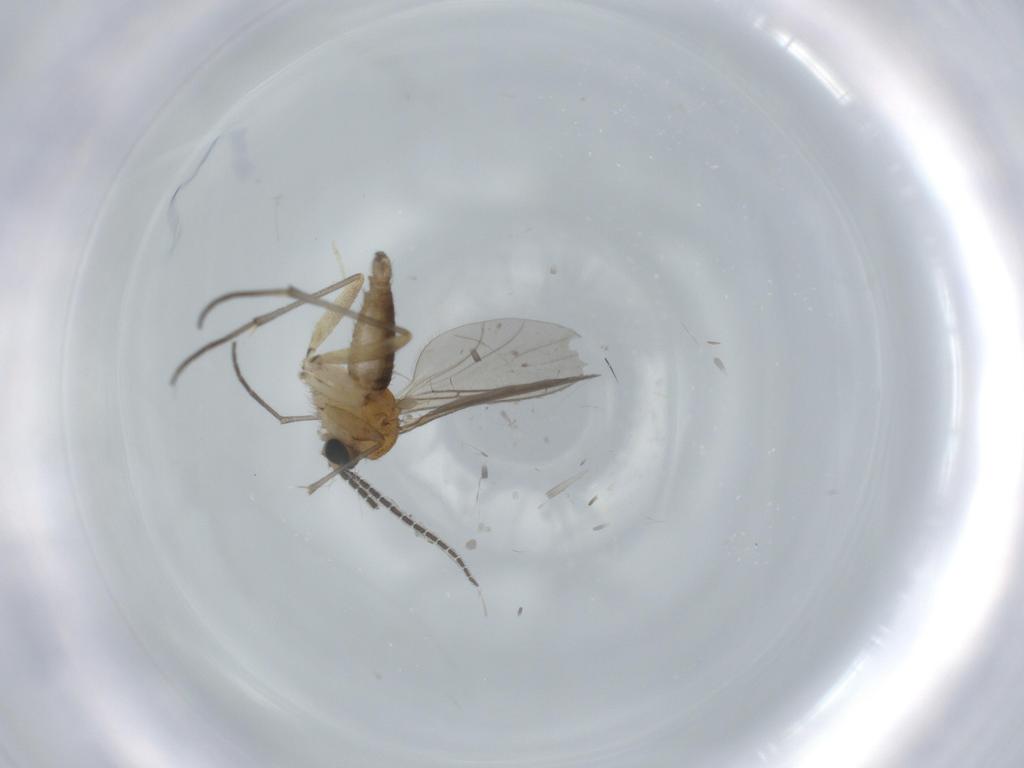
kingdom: Animalia
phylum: Arthropoda
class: Insecta
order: Diptera
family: Sciaridae
